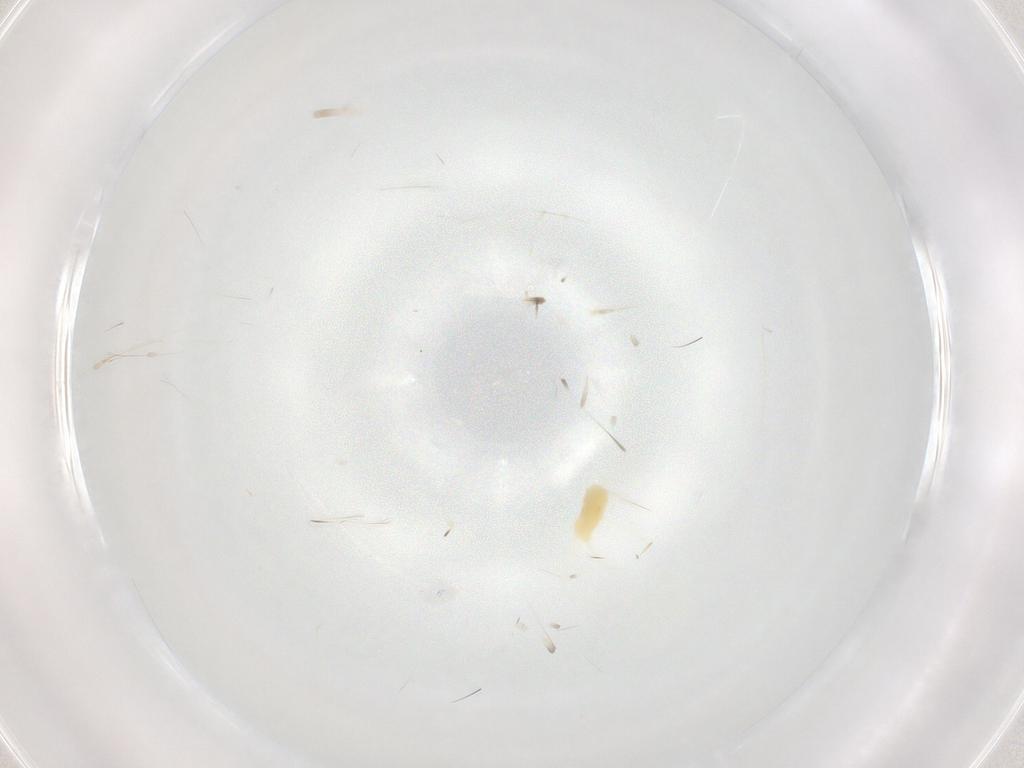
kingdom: Animalia
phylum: Arthropoda
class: Arachnida
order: Trombidiformes
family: Tetranychidae
